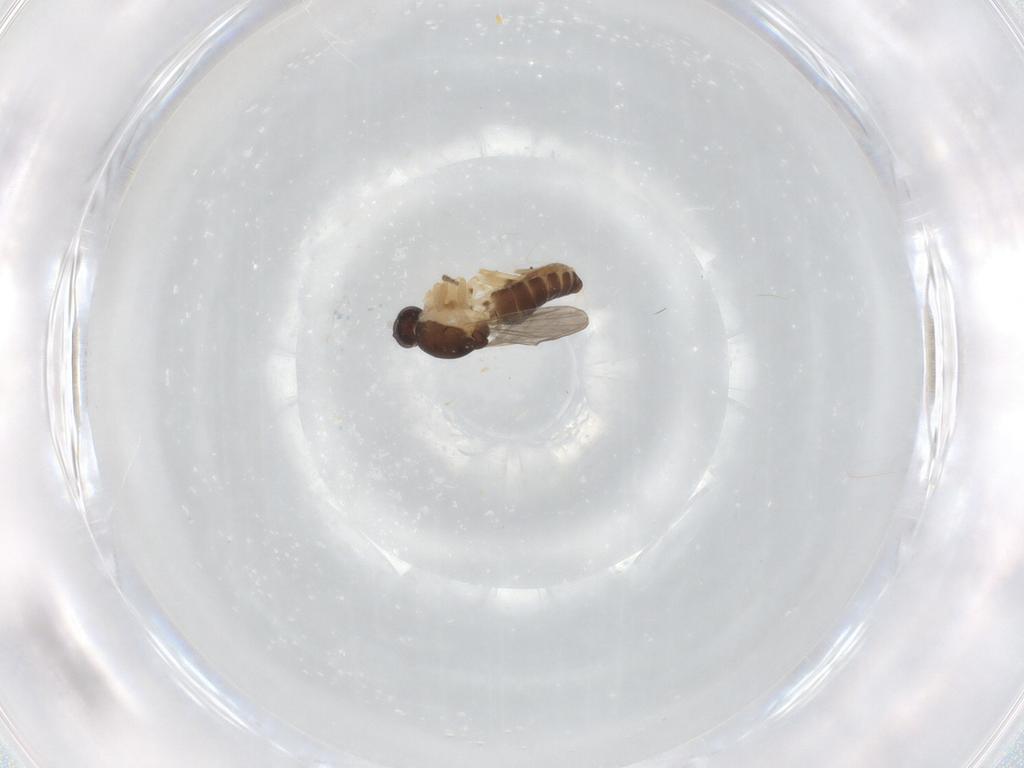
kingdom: Animalia
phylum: Arthropoda
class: Insecta
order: Diptera
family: Ceratopogonidae
